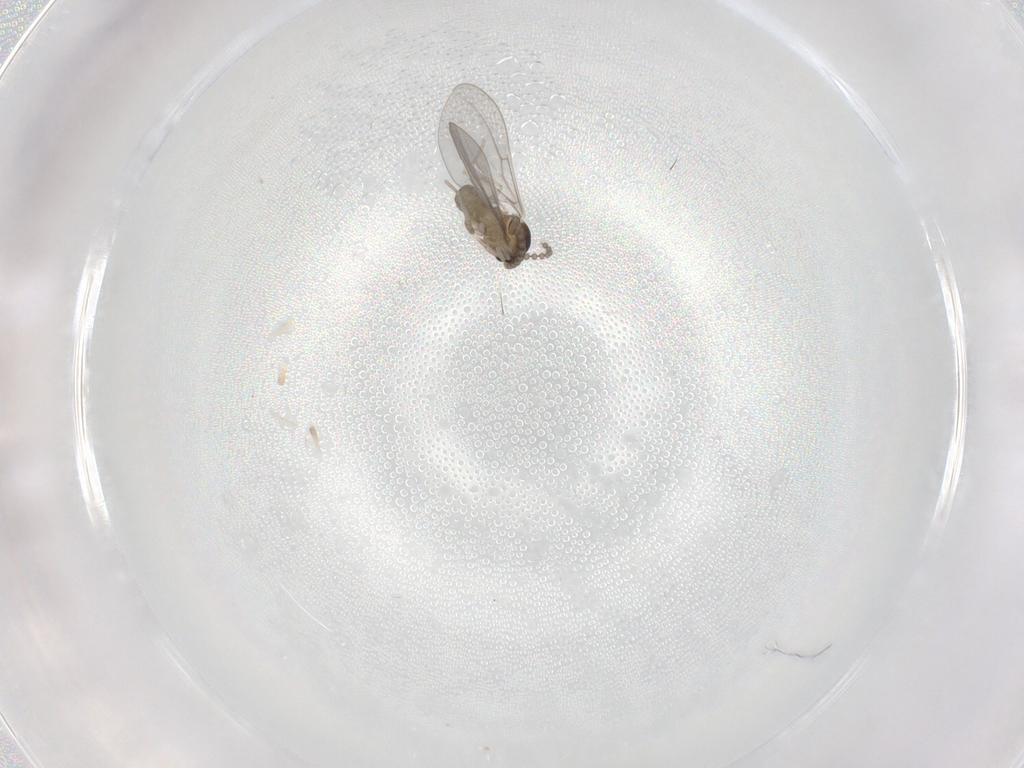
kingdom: Animalia
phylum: Arthropoda
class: Insecta
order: Diptera
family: Cecidomyiidae
